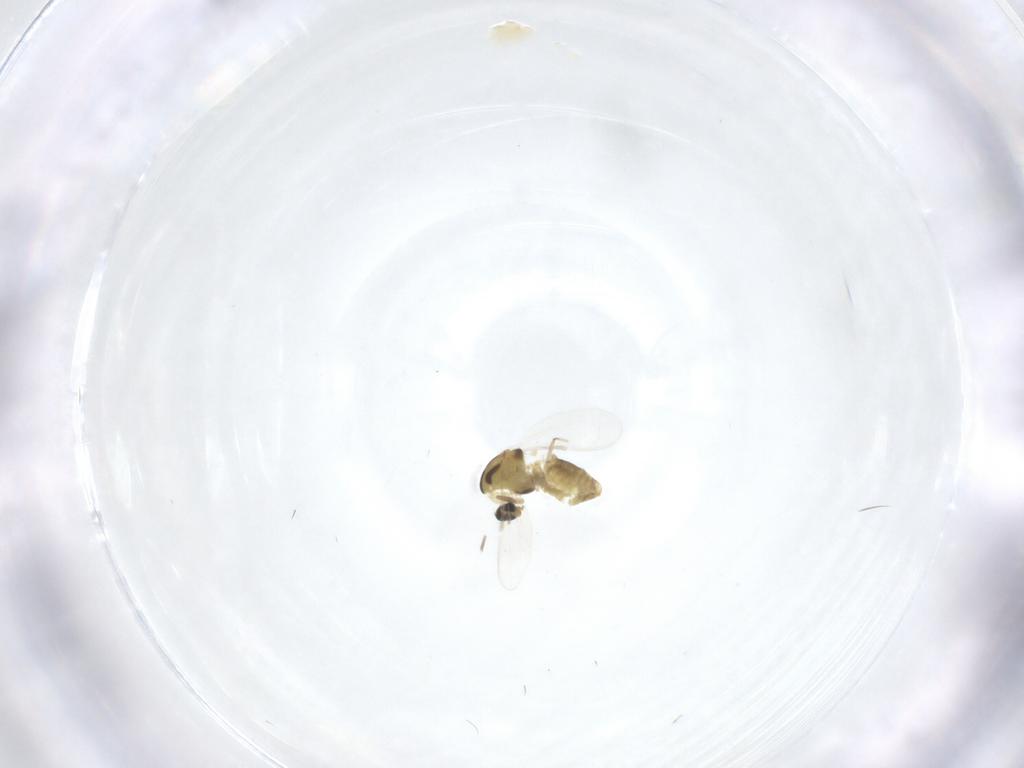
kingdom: Animalia
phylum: Arthropoda
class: Insecta
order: Diptera
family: Chironomidae
